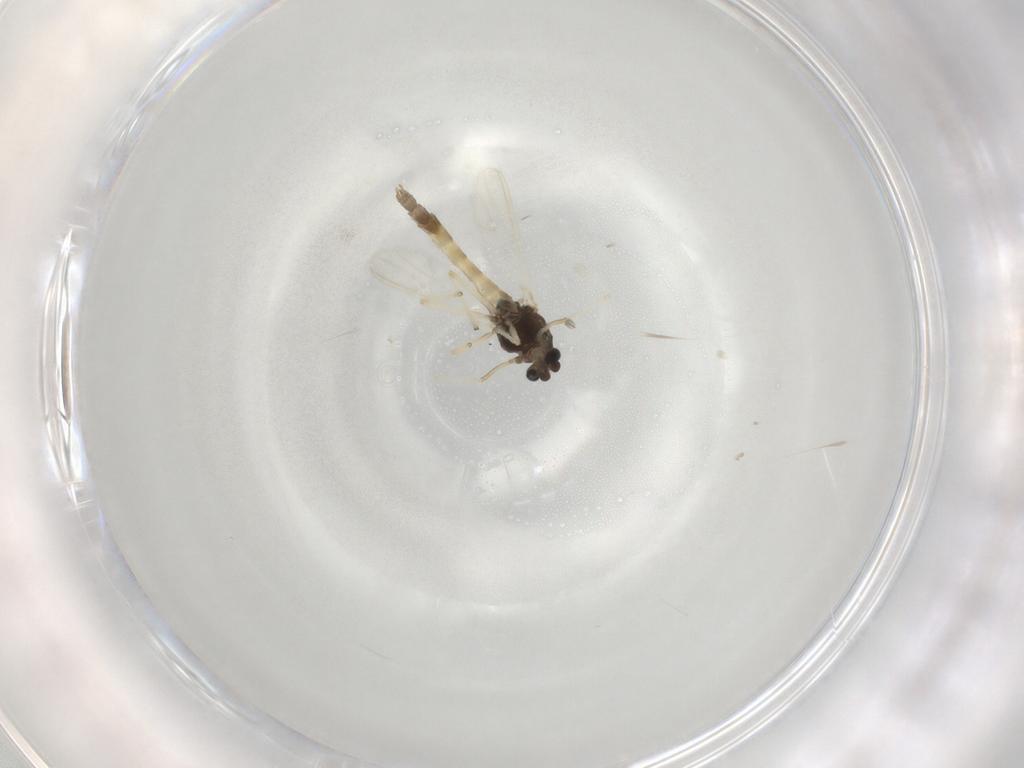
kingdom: Animalia
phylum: Arthropoda
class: Insecta
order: Diptera
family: Chironomidae
